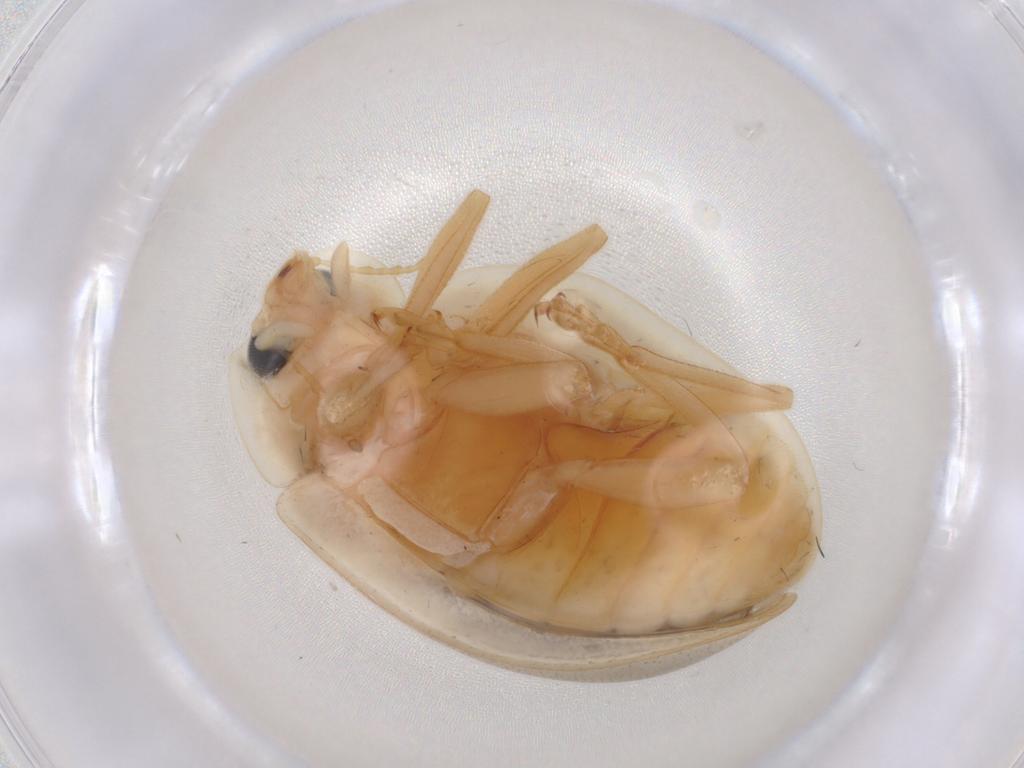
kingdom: Animalia
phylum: Arthropoda
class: Insecta
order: Coleoptera
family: Coccinellidae
